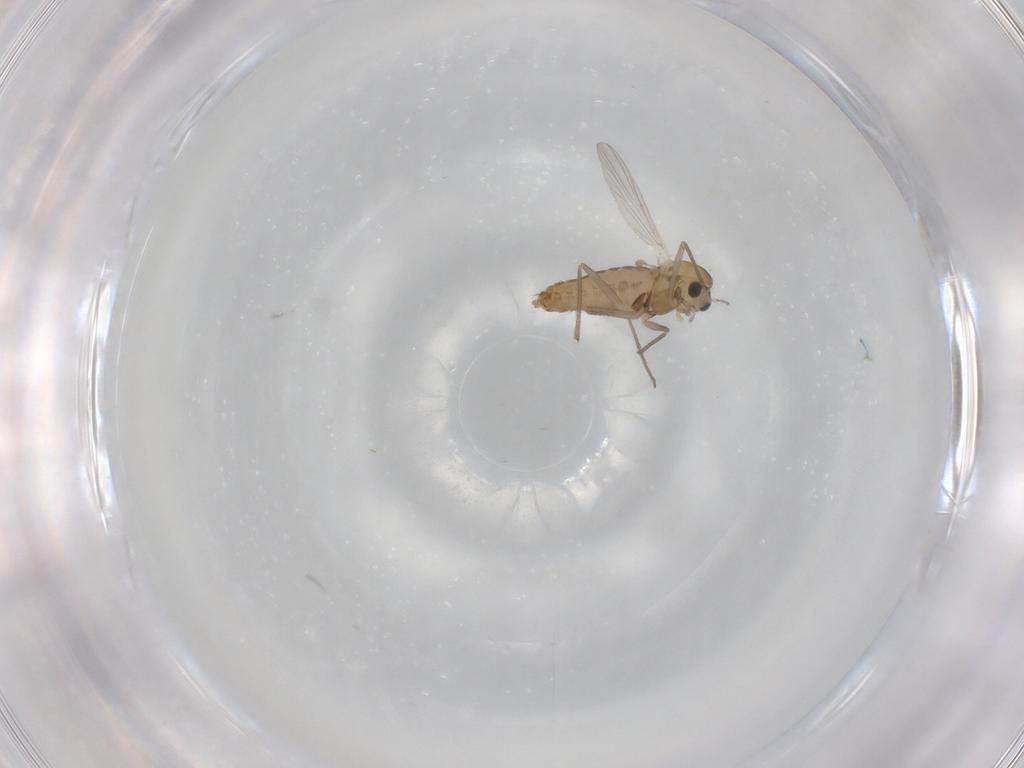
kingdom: Animalia
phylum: Arthropoda
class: Insecta
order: Diptera
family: Chironomidae
